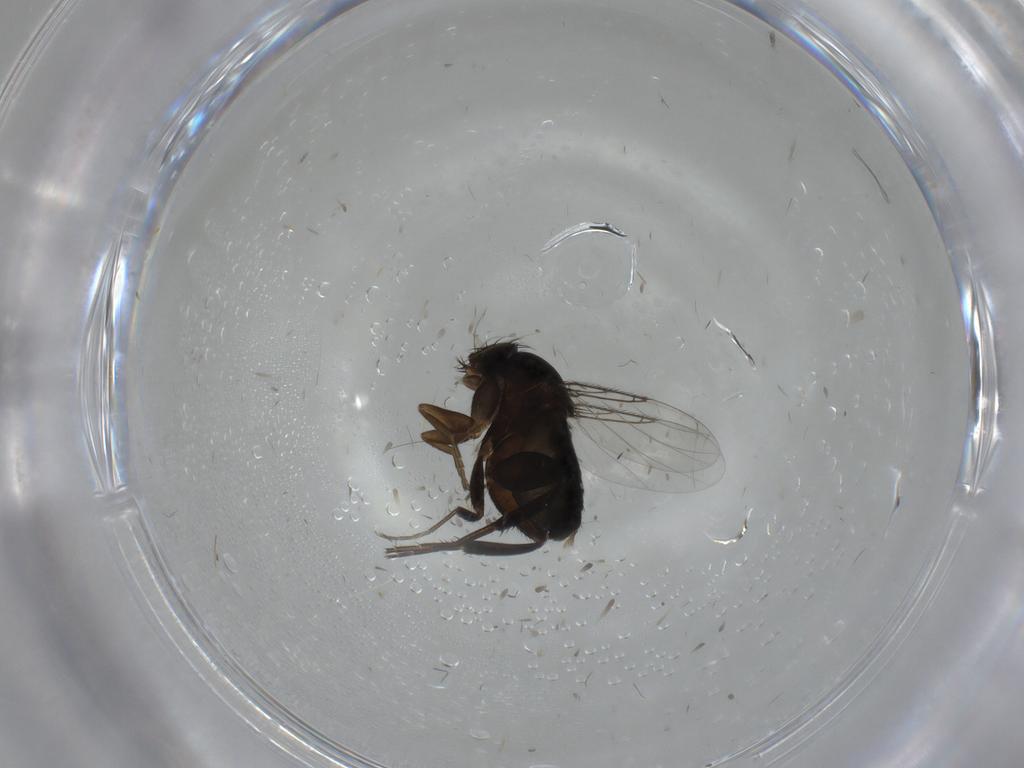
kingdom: Animalia
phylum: Arthropoda
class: Insecta
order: Diptera
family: Phoridae
